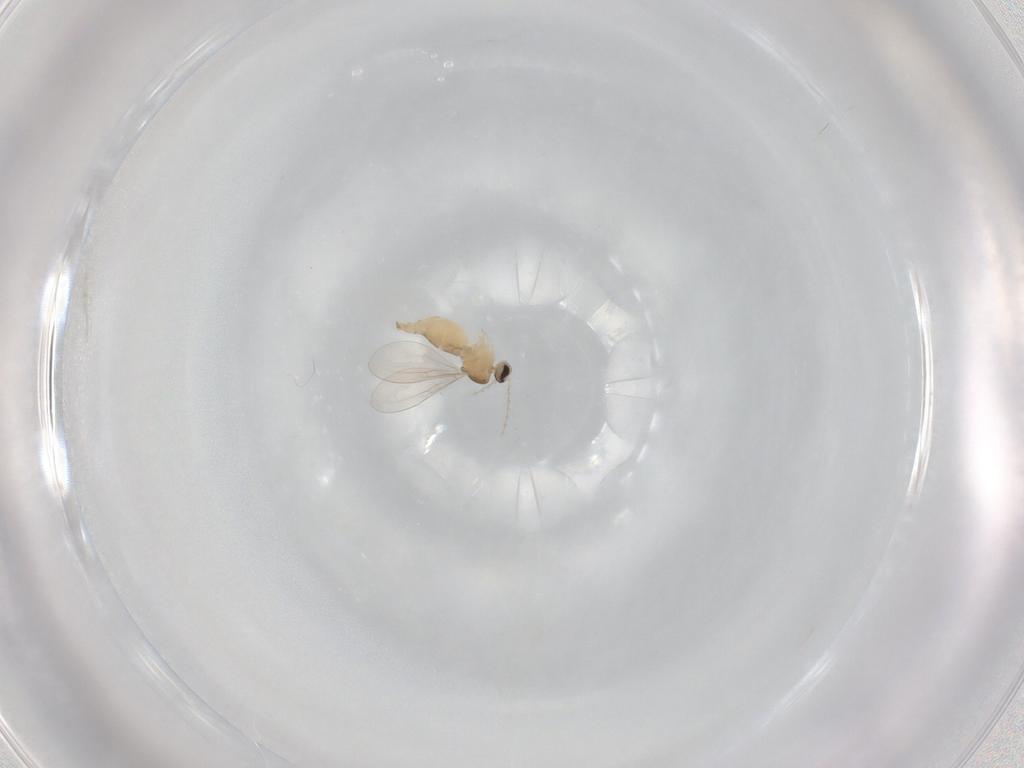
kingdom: Animalia
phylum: Arthropoda
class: Insecta
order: Diptera
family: Cecidomyiidae
